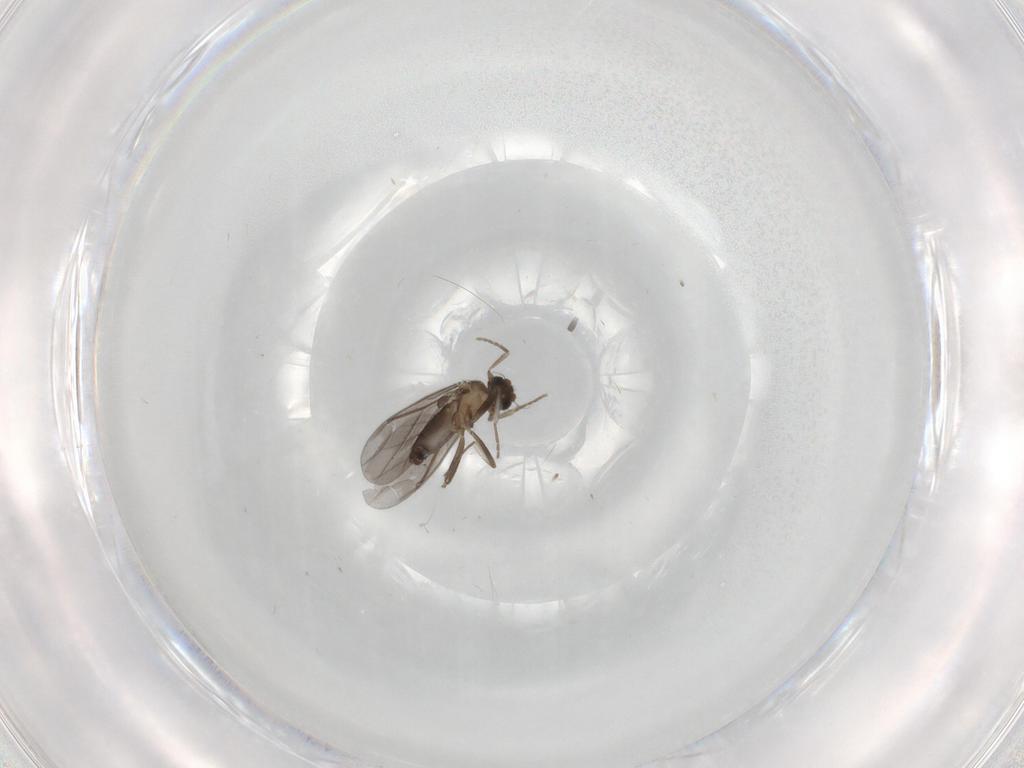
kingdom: Animalia
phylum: Arthropoda
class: Insecta
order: Diptera
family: Phoridae
